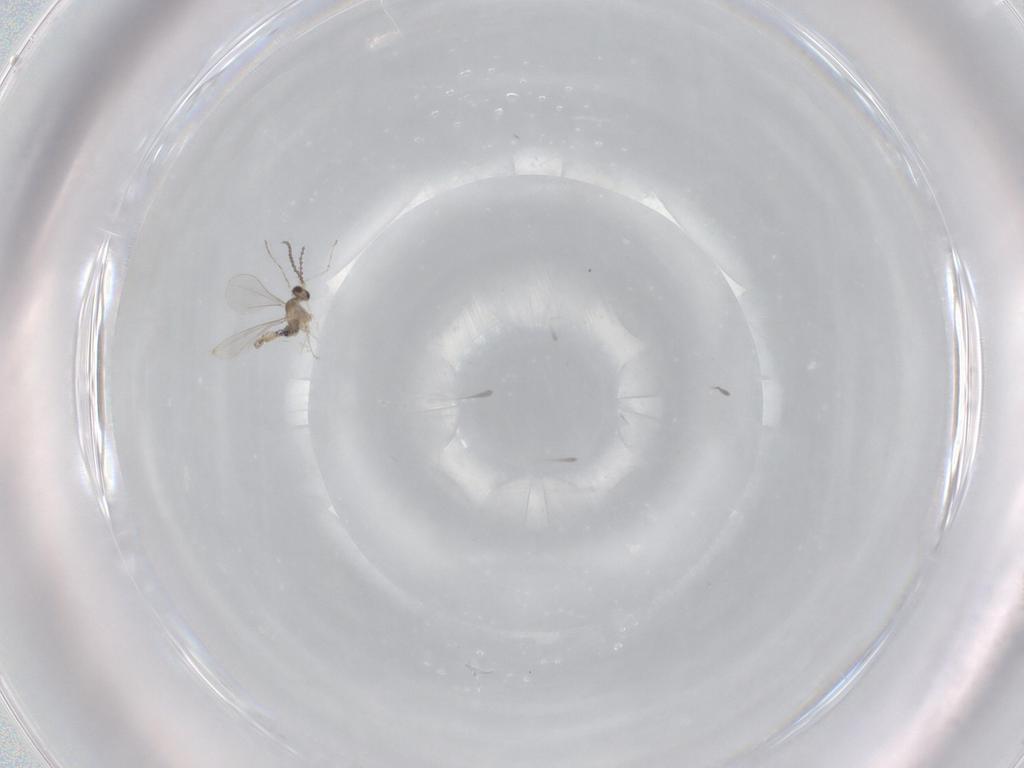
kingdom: Animalia
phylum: Arthropoda
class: Insecta
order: Diptera
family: Cecidomyiidae
